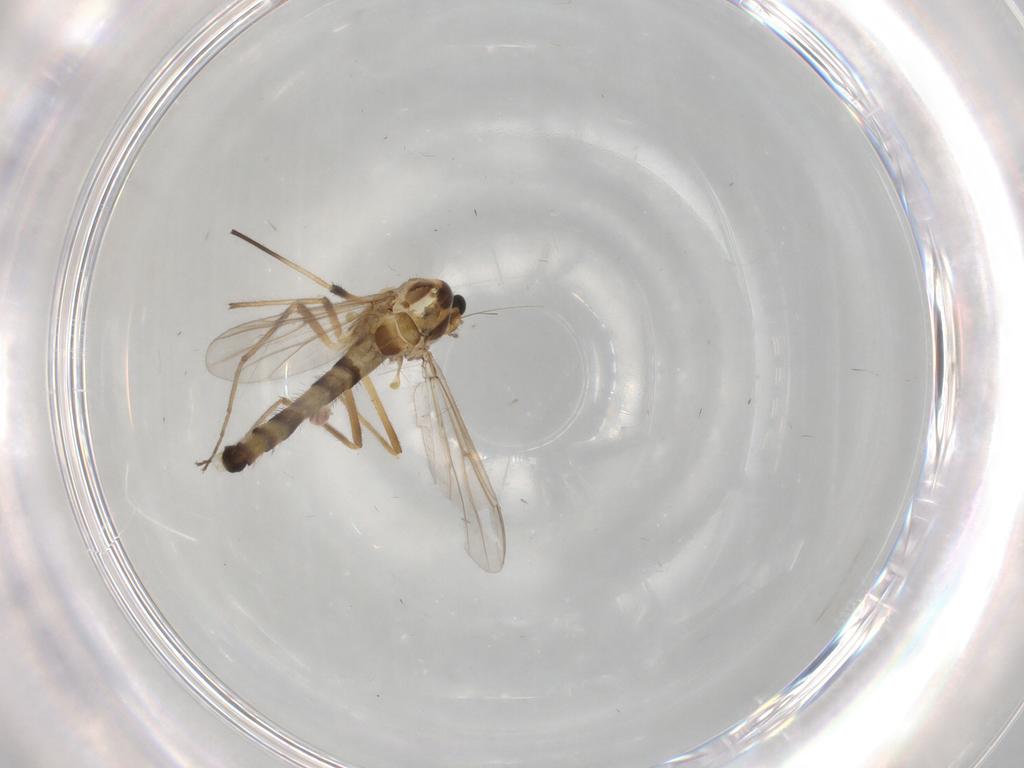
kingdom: Animalia
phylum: Arthropoda
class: Insecta
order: Diptera
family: Chironomidae
